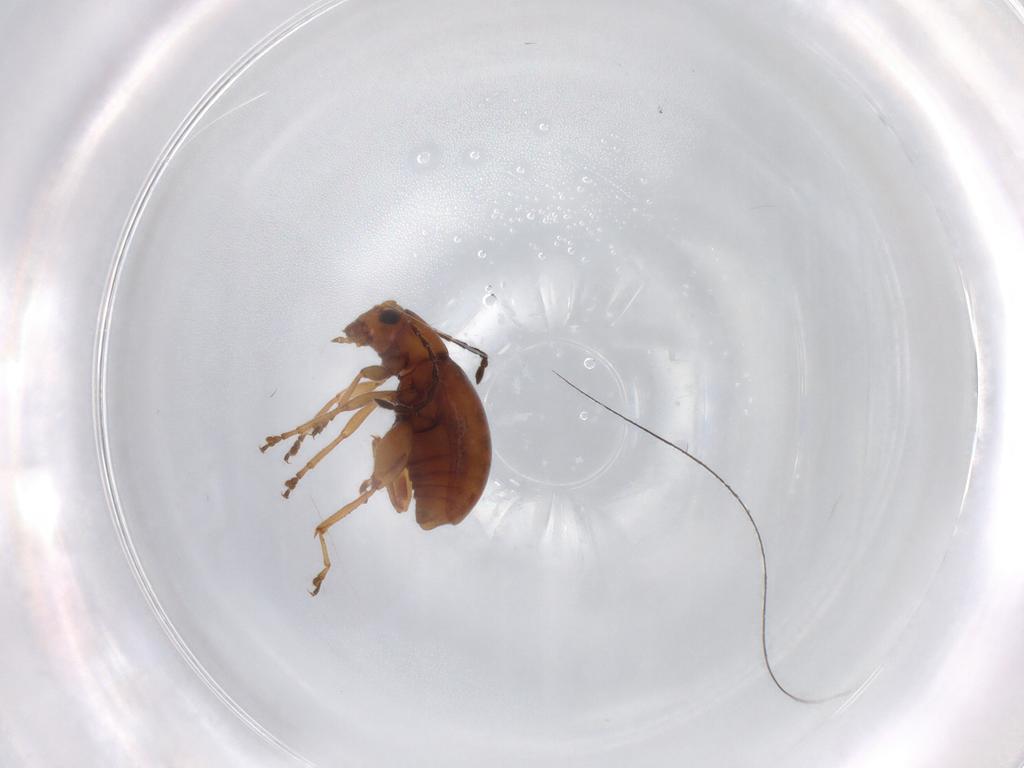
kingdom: Animalia
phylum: Arthropoda
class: Insecta
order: Coleoptera
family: Chrysomelidae
